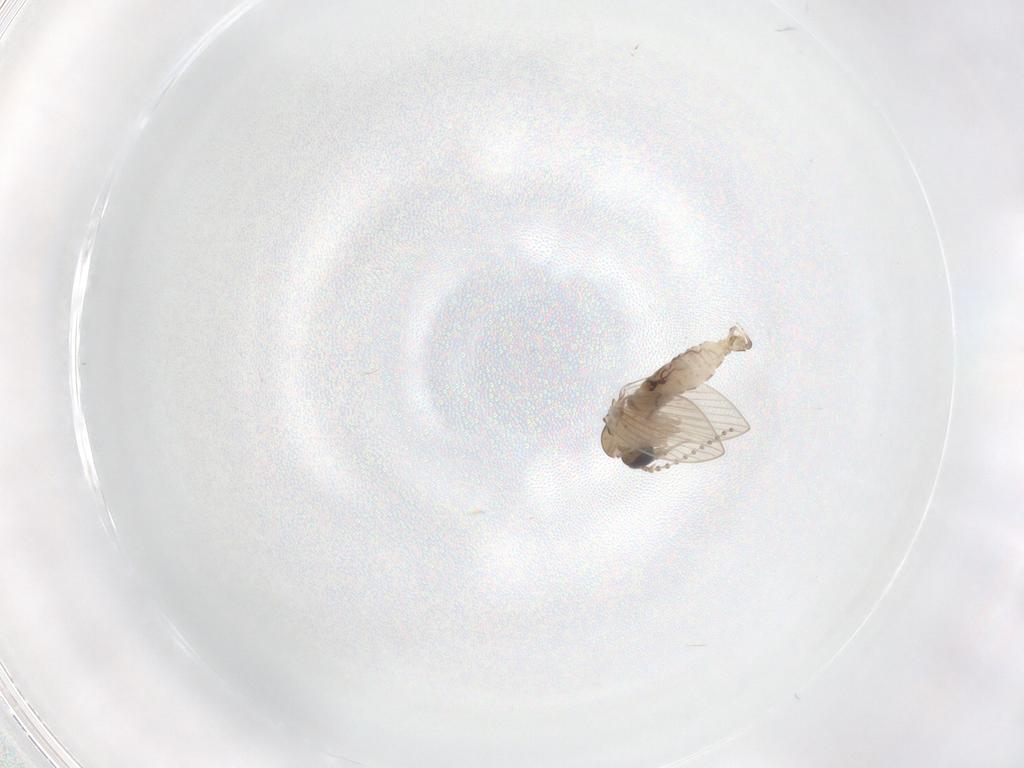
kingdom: Animalia
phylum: Arthropoda
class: Insecta
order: Diptera
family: Psychodidae
